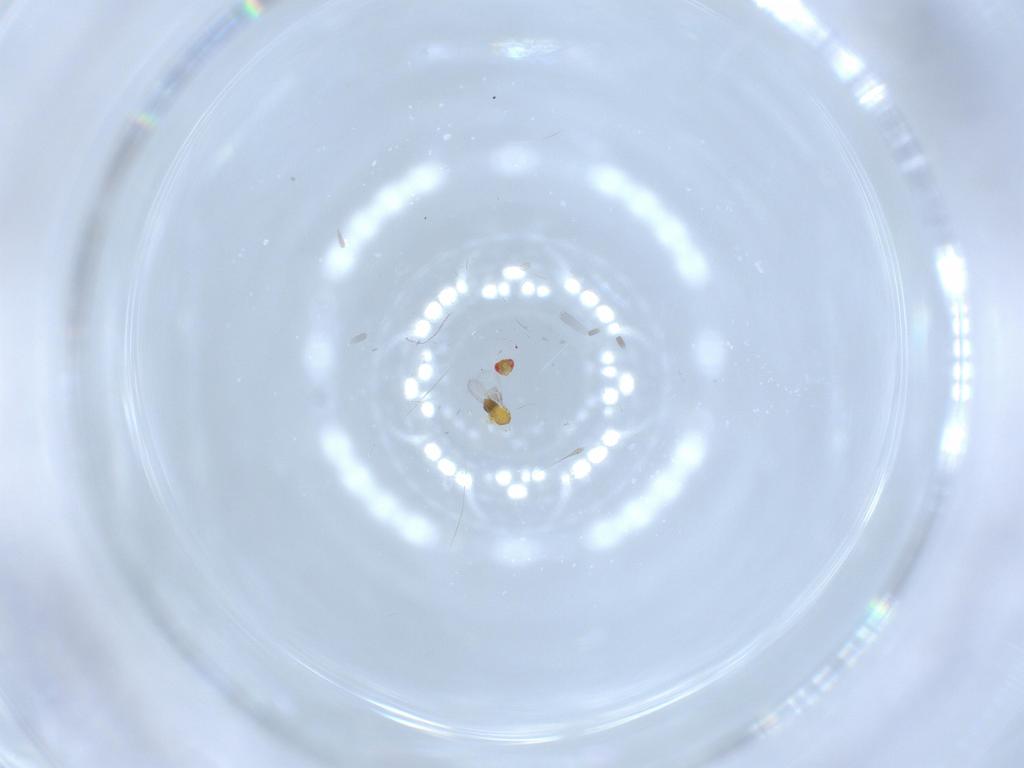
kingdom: Animalia
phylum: Arthropoda
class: Insecta
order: Hymenoptera
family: Trichogrammatidae
